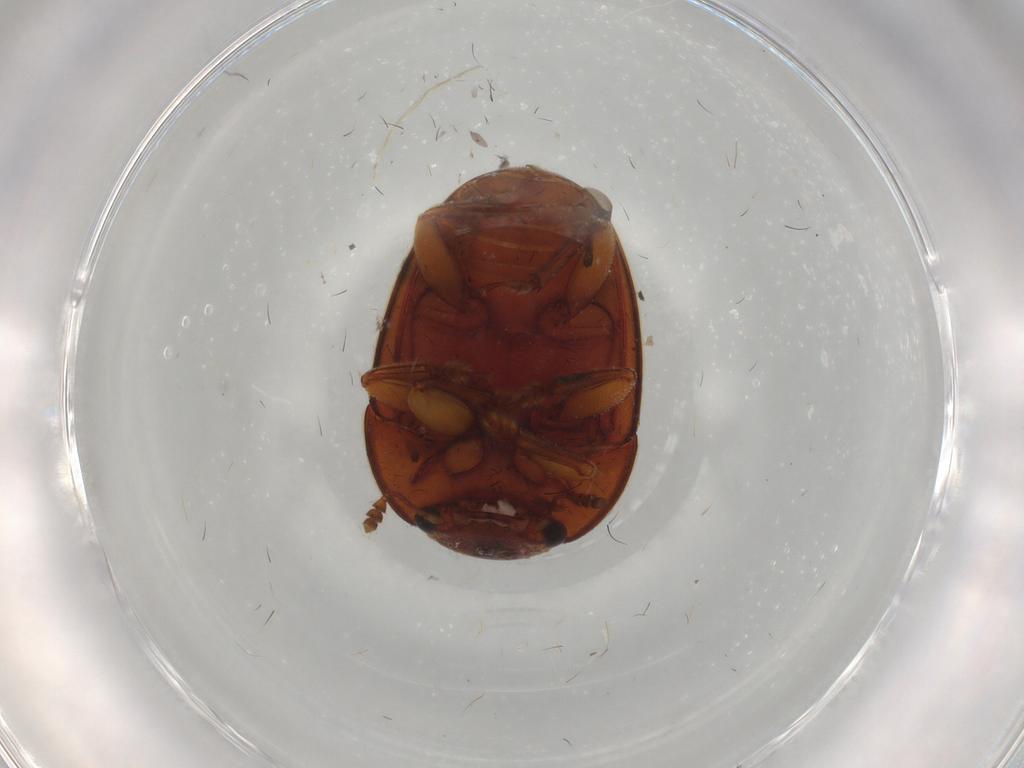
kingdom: Animalia
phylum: Arthropoda
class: Insecta
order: Coleoptera
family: Nitidulidae
